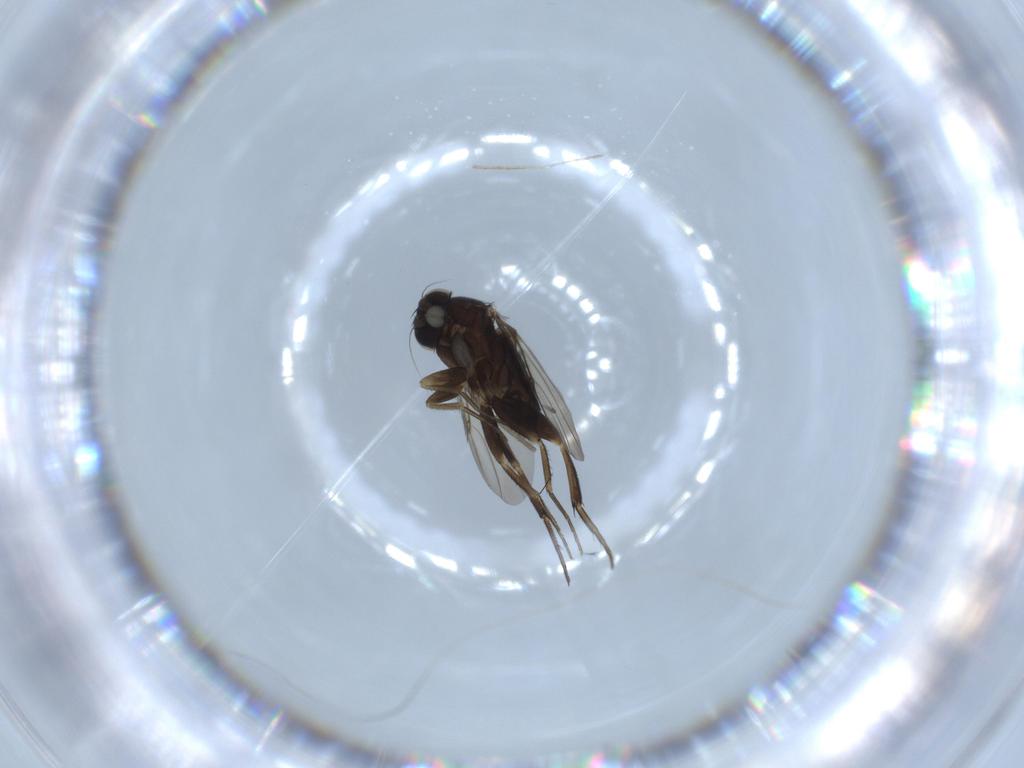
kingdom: Animalia
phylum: Arthropoda
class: Insecta
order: Diptera
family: Phoridae
